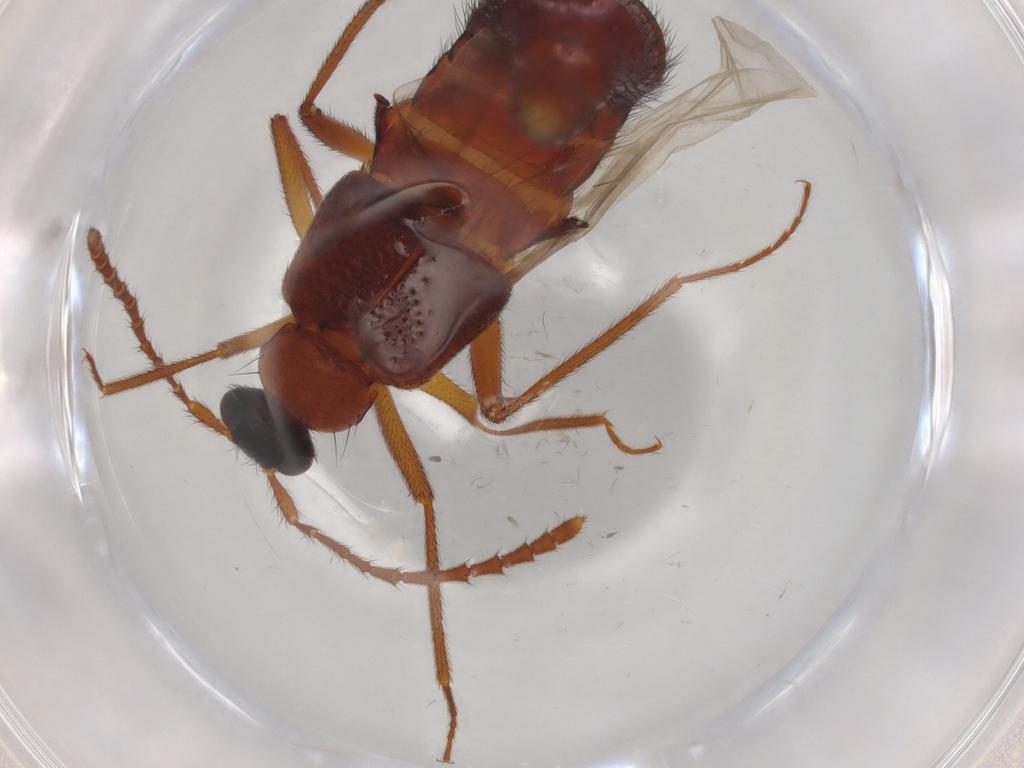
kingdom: Animalia
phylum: Arthropoda
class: Insecta
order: Coleoptera
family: Staphylinidae
